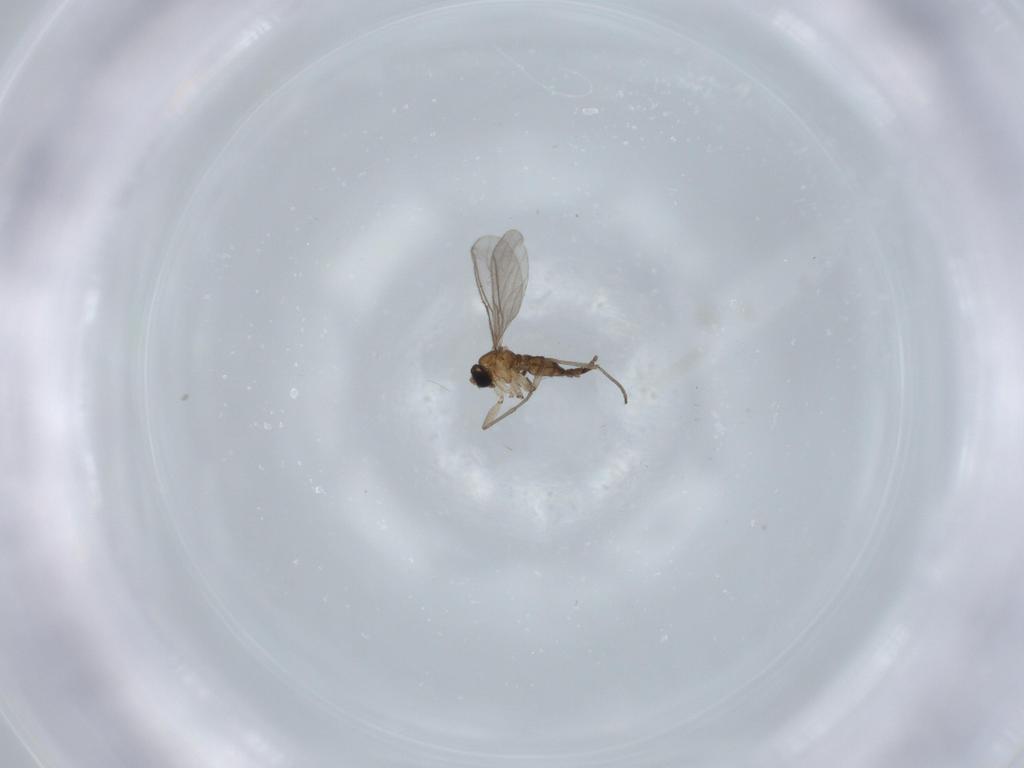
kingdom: Animalia
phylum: Arthropoda
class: Insecta
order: Diptera
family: Sciaridae
